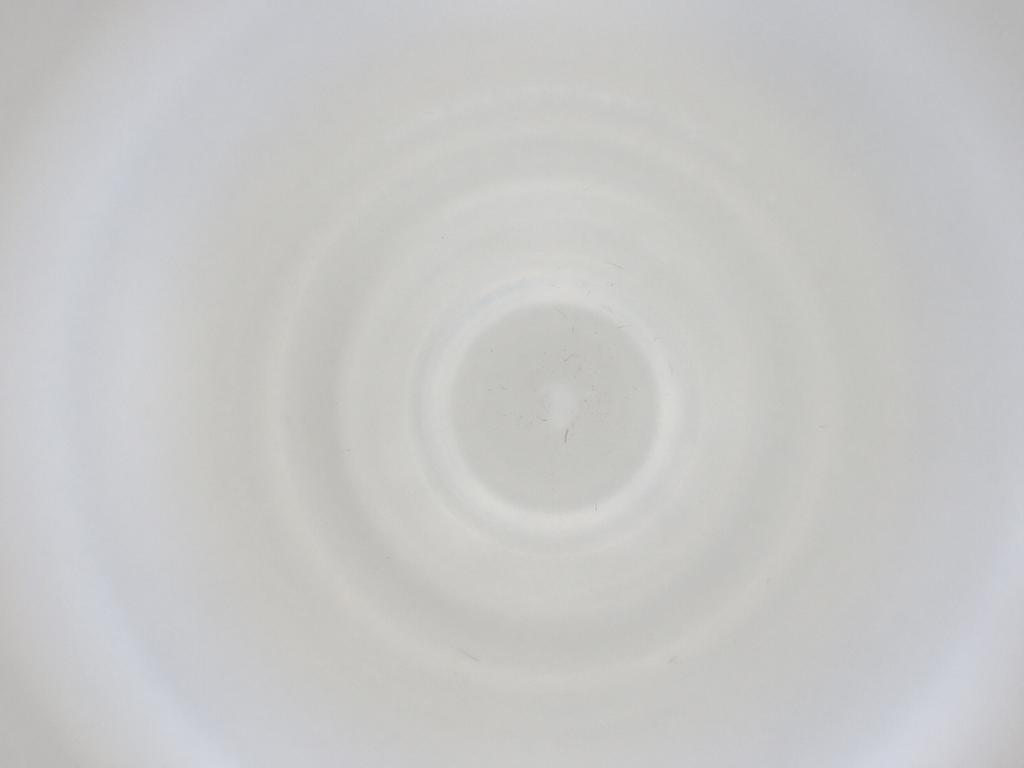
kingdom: Animalia
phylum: Arthropoda
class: Insecta
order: Diptera
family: Cecidomyiidae
